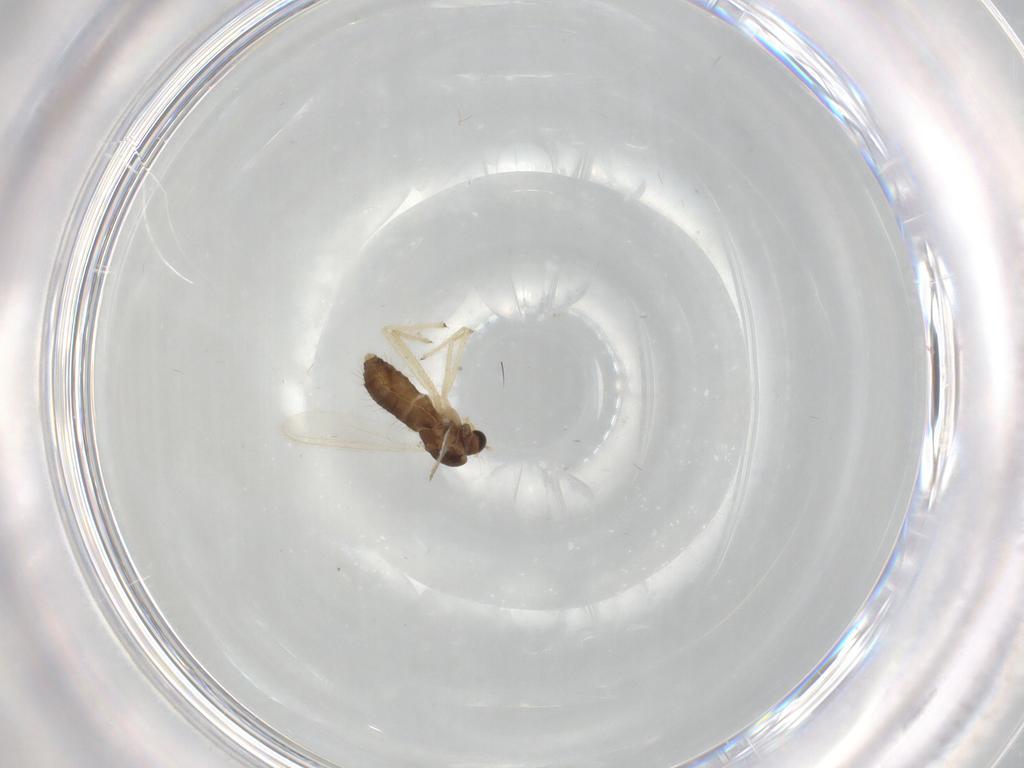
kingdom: Animalia
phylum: Arthropoda
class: Insecta
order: Diptera
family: Chironomidae
